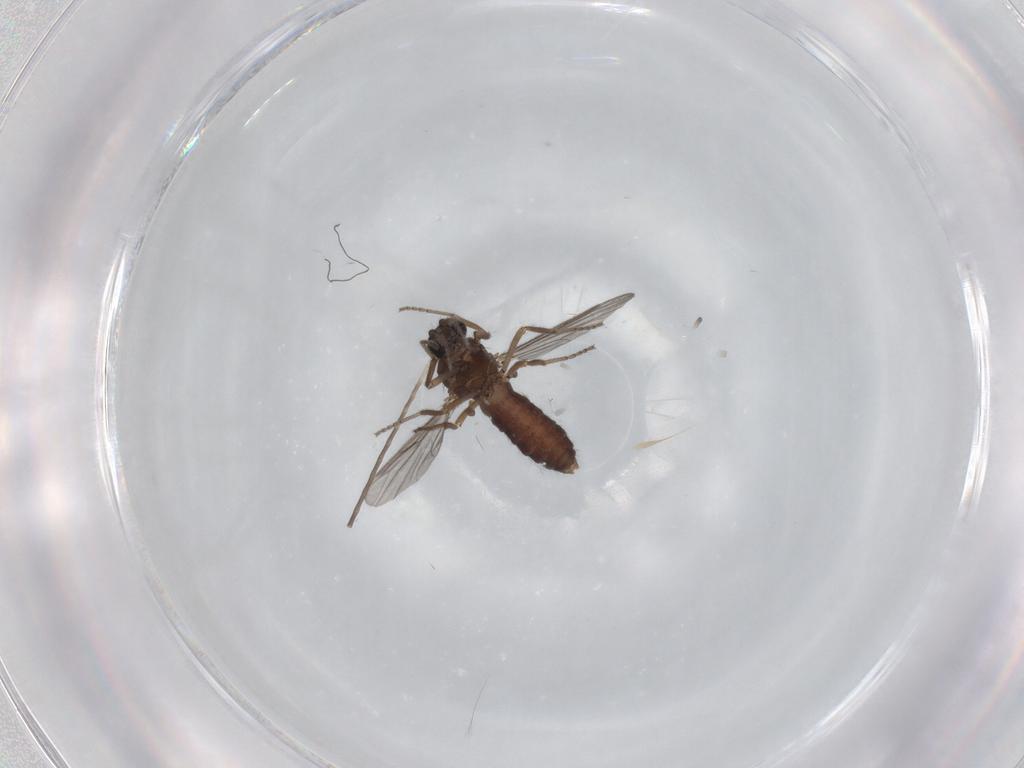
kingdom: Animalia
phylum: Arthropoda
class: Insecta
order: Diptera
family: Ceratopogonidae
